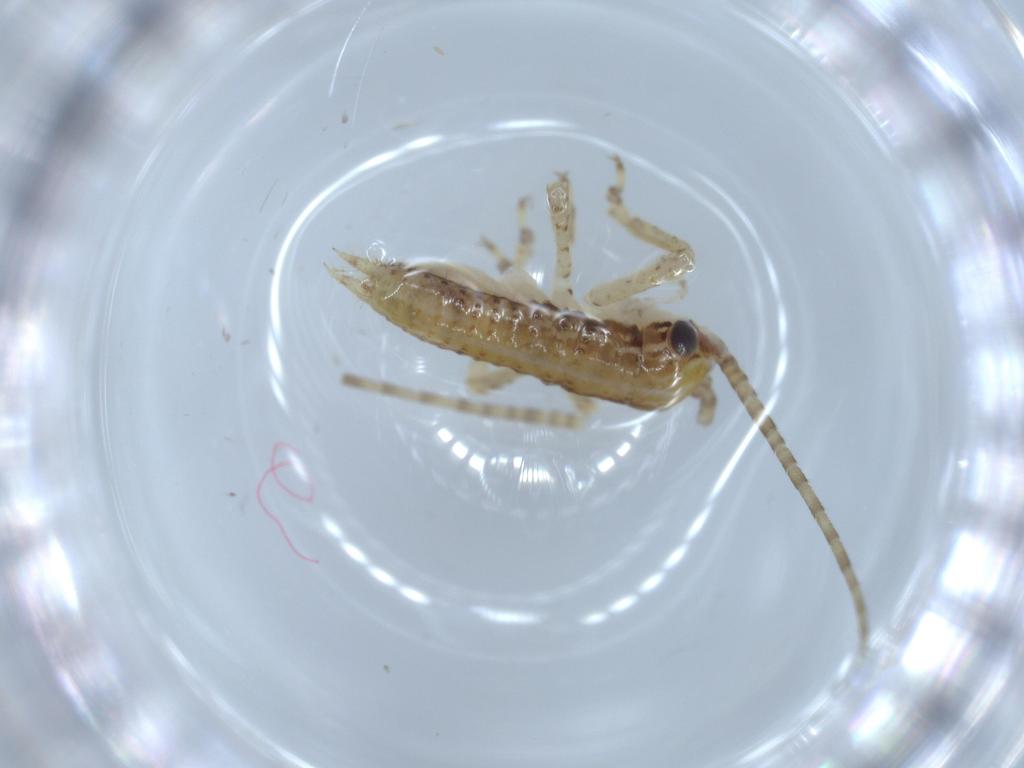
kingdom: Animalia
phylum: Arthropoda
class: Insecta
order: Orthoptera
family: Gryllidae
